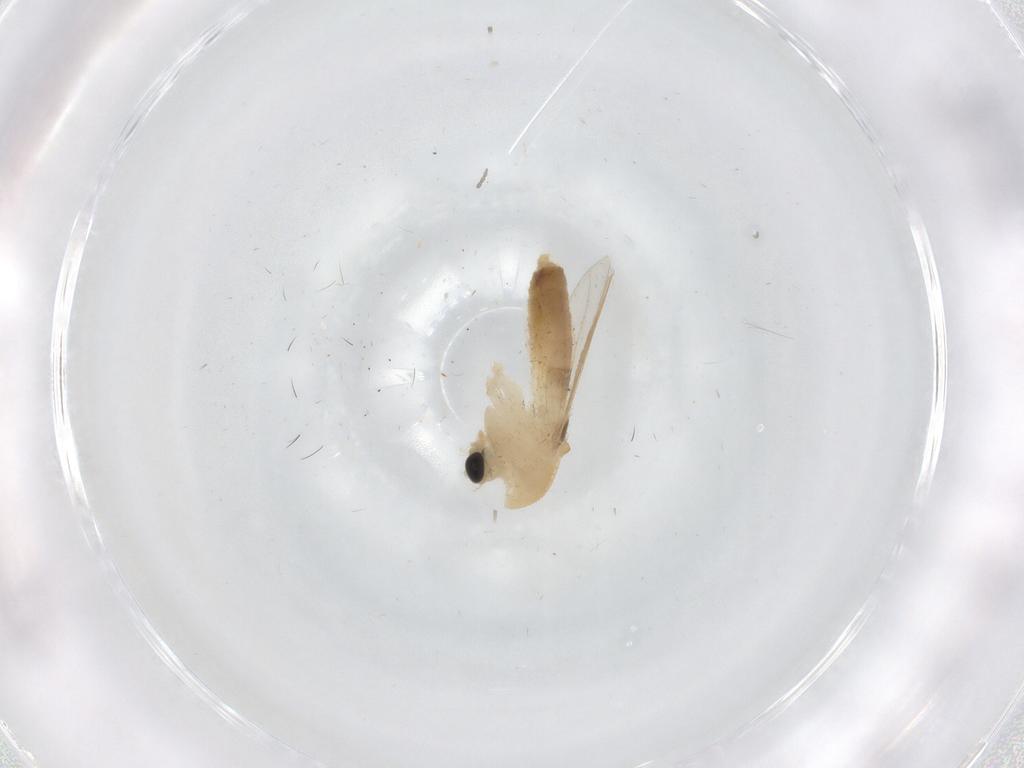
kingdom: Animalia
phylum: Arthropoda
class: Insecta
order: Diptera
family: Chironomidae
